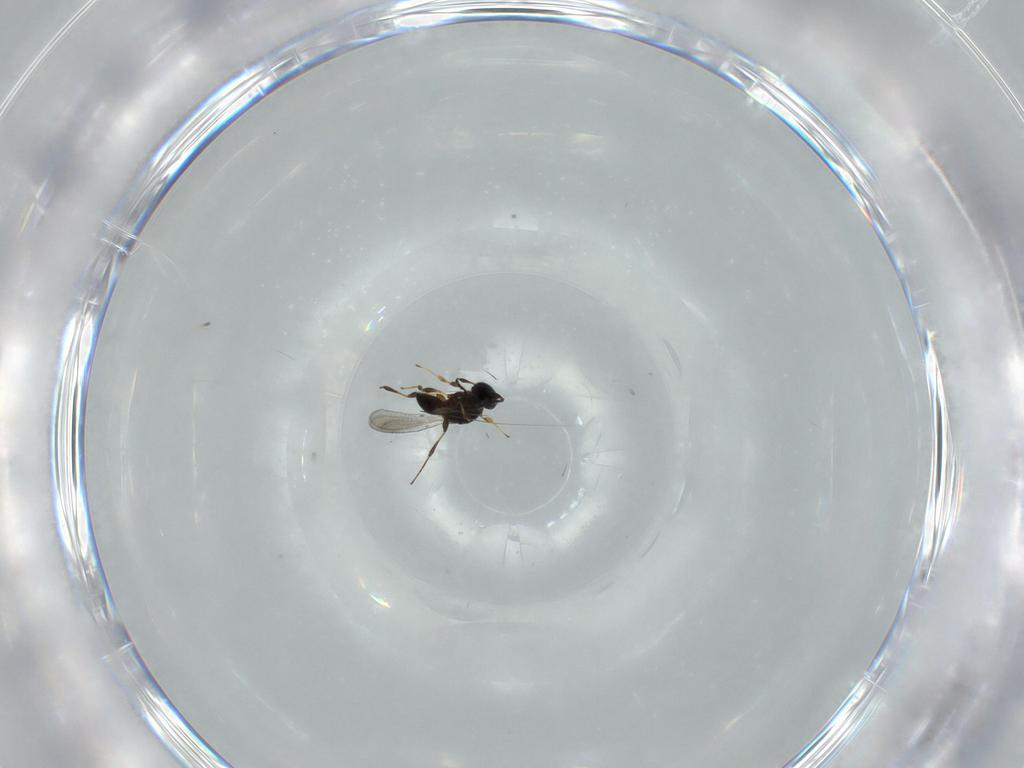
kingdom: Animalia
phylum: Arthropoda
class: Insecta
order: Hymenoptera
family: Platygastridae
